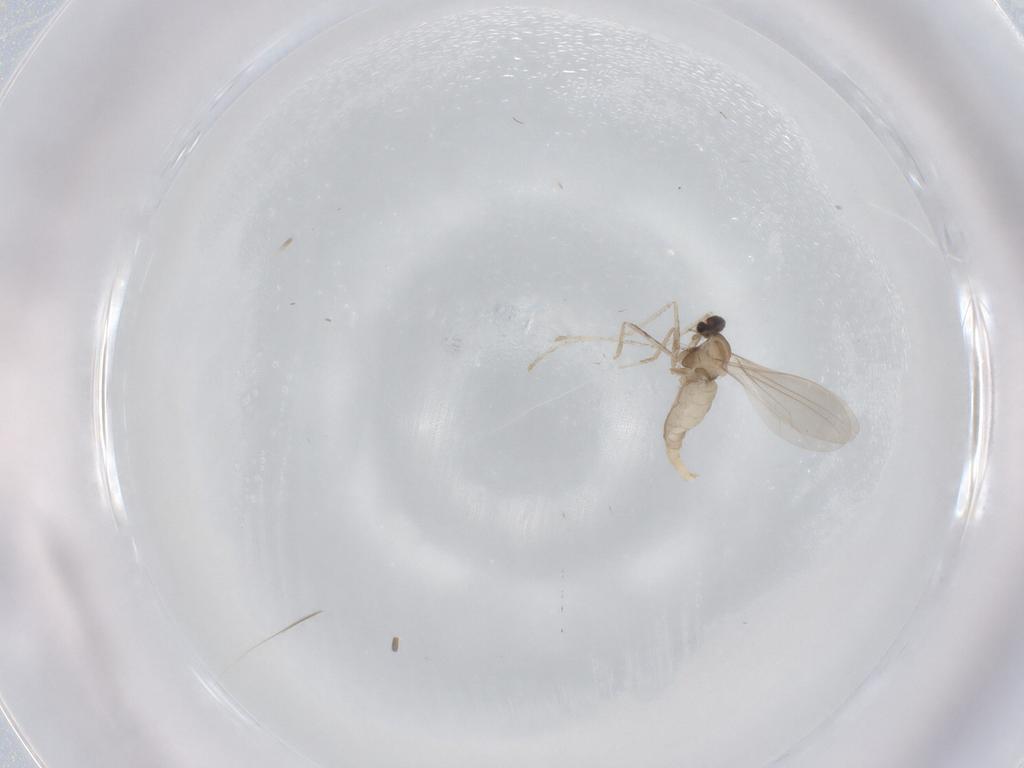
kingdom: Animalia
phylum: Arthropoda
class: Insecta
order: Diptera
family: Cecidomyiidae
